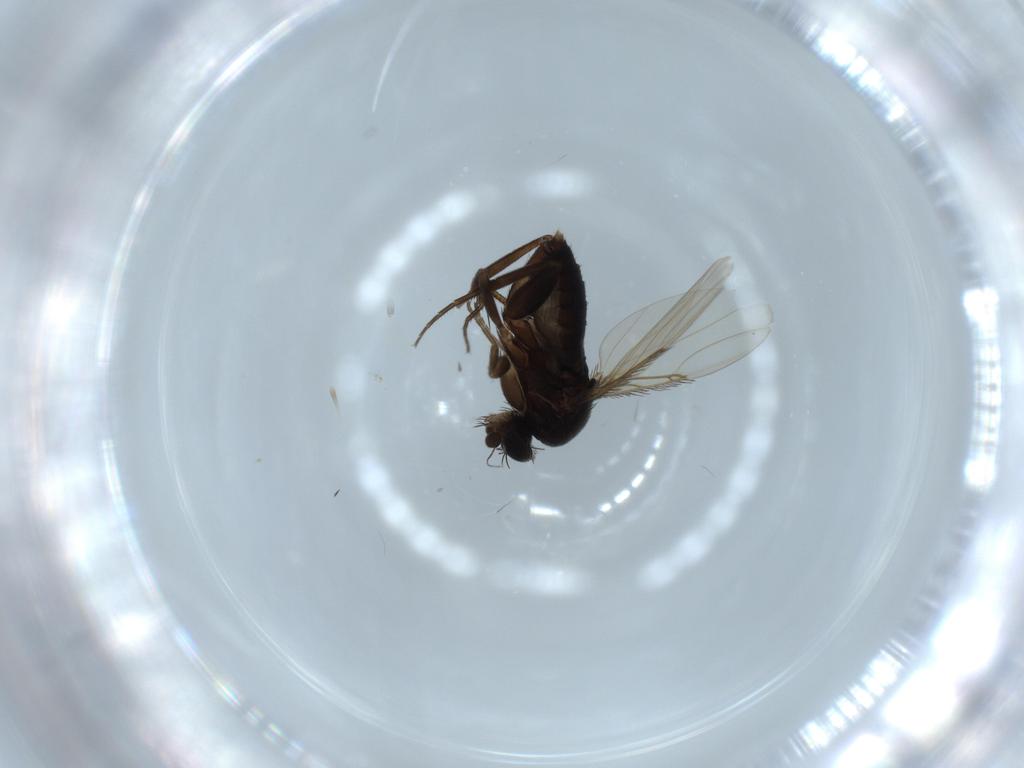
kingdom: Animalia
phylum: Arthropoda
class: Insecta
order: Diptera
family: Phoridae
